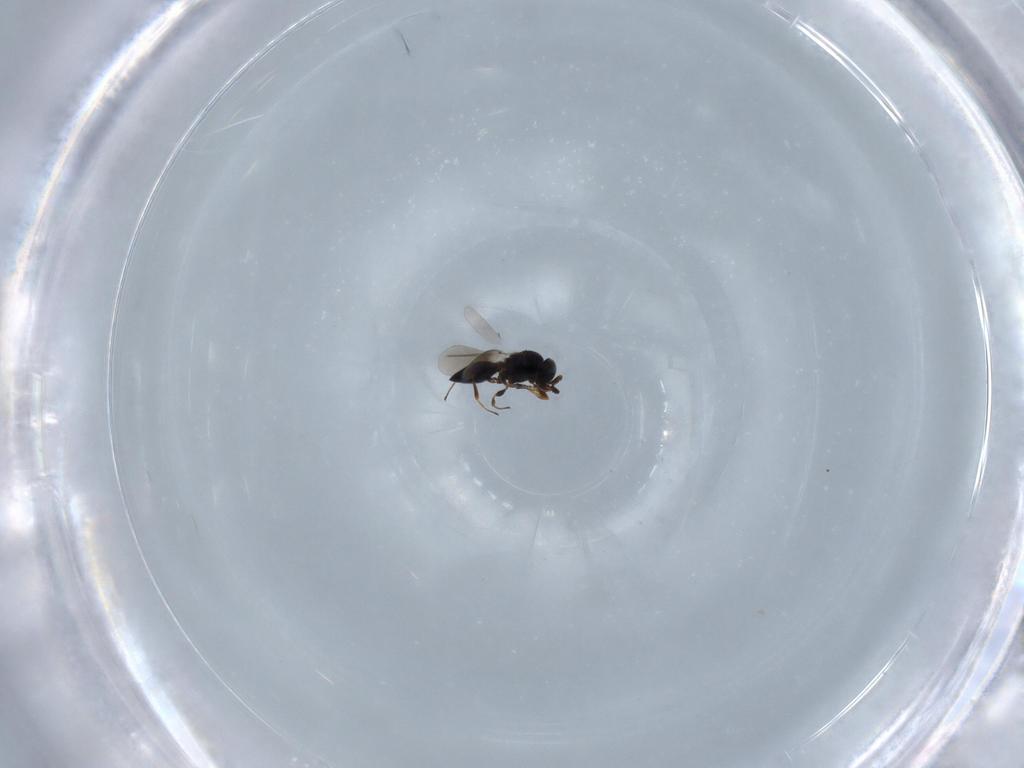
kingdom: Animalia
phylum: Arthropoda
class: Insecta
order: Hymenoptera
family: Platygastridae
